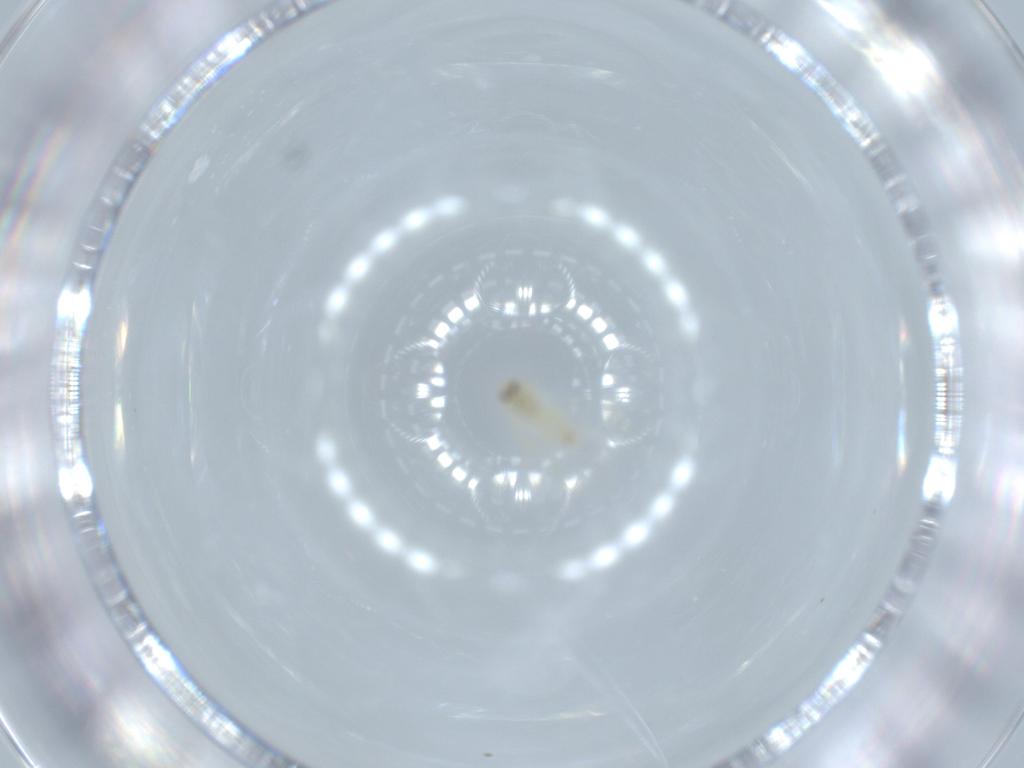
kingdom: Animalia
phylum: Arthropoda
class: Insecta
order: Hemiptera
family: Aleyrodidae
